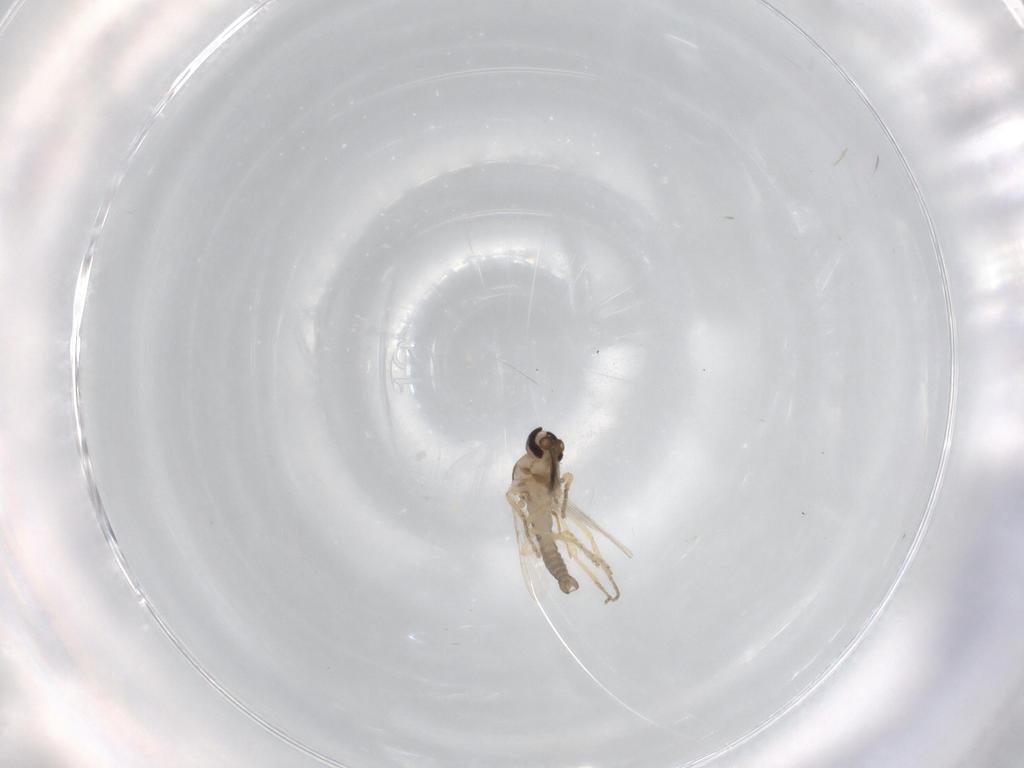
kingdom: Animalia
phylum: Arthropoda
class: Insecta
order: Diptera
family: Ceratopogonidae
